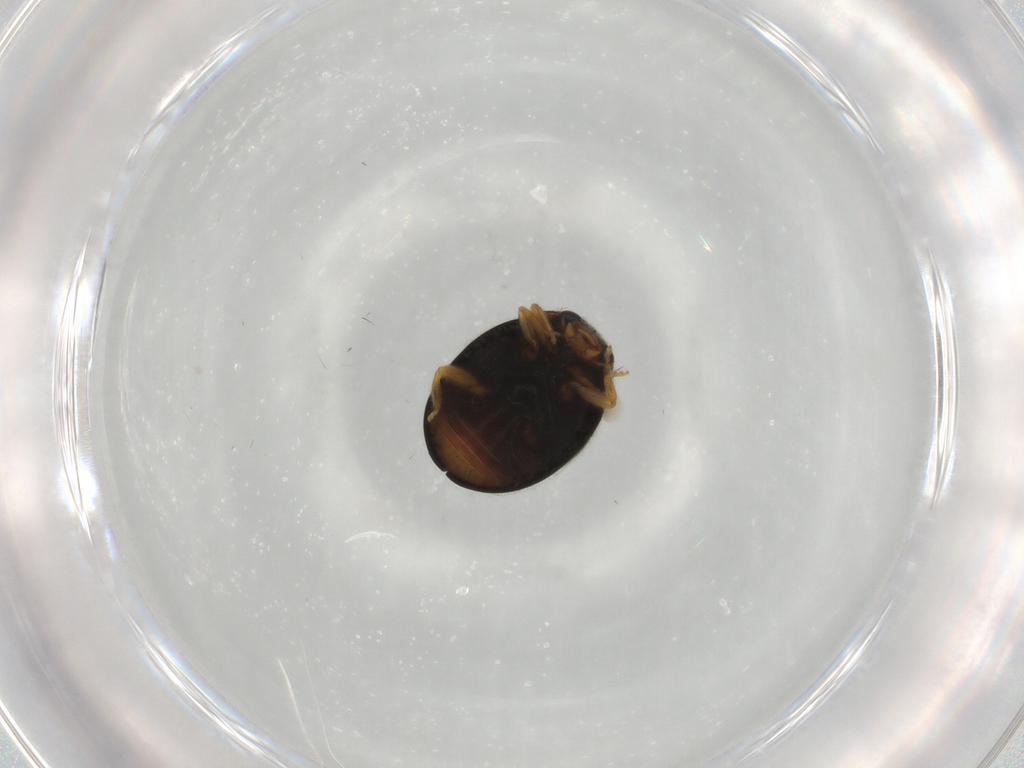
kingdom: Animalia
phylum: Arthropoda
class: Insecta
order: Coleoptera
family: Coccinellidae
